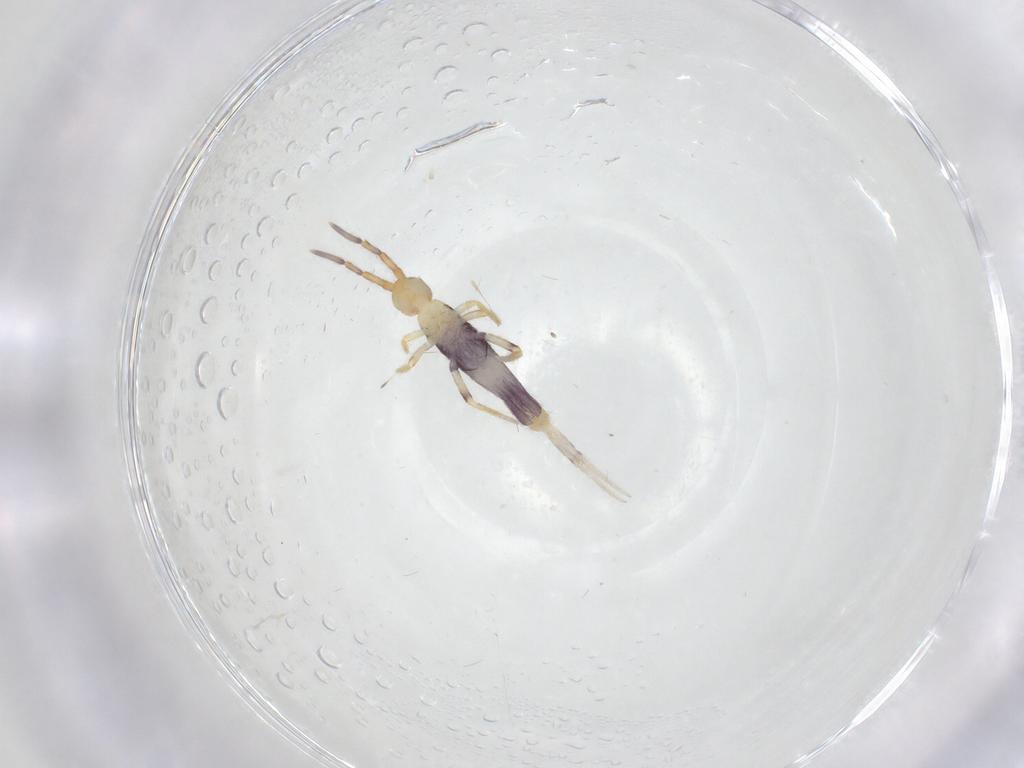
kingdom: Animalia
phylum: Arthropoda
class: Collembola
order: Entomobryomorpha
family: Entomobryidae
